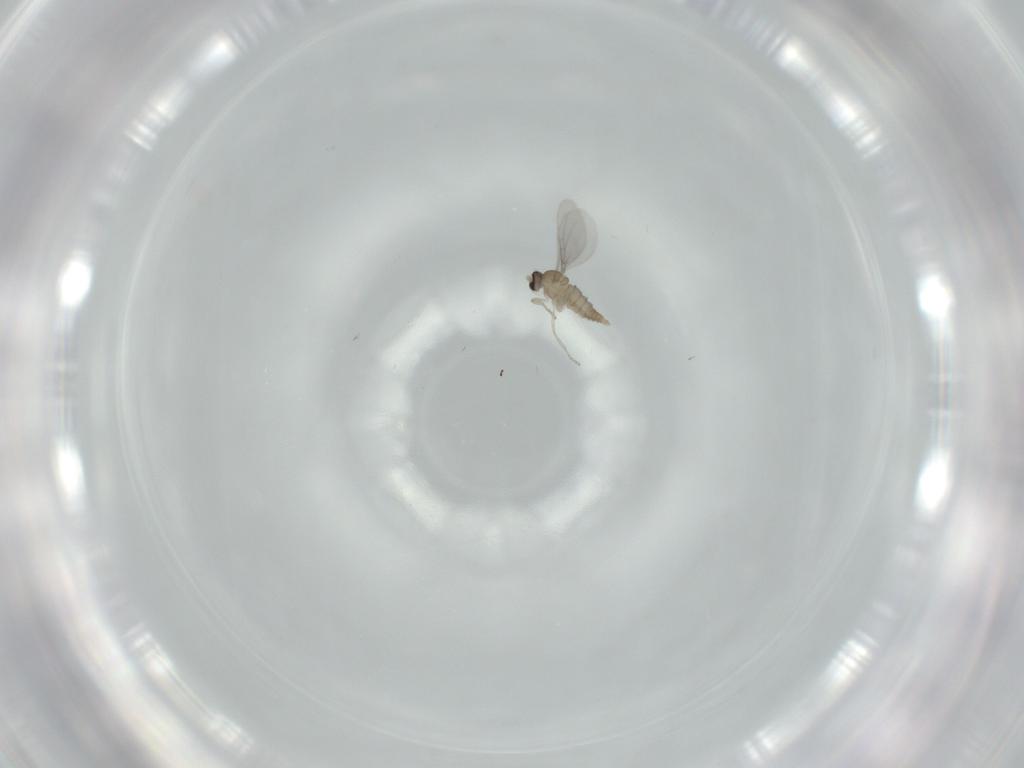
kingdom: Animalia
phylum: Arthropoda
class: Insecta
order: Diptera
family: Cecidomyiidae
